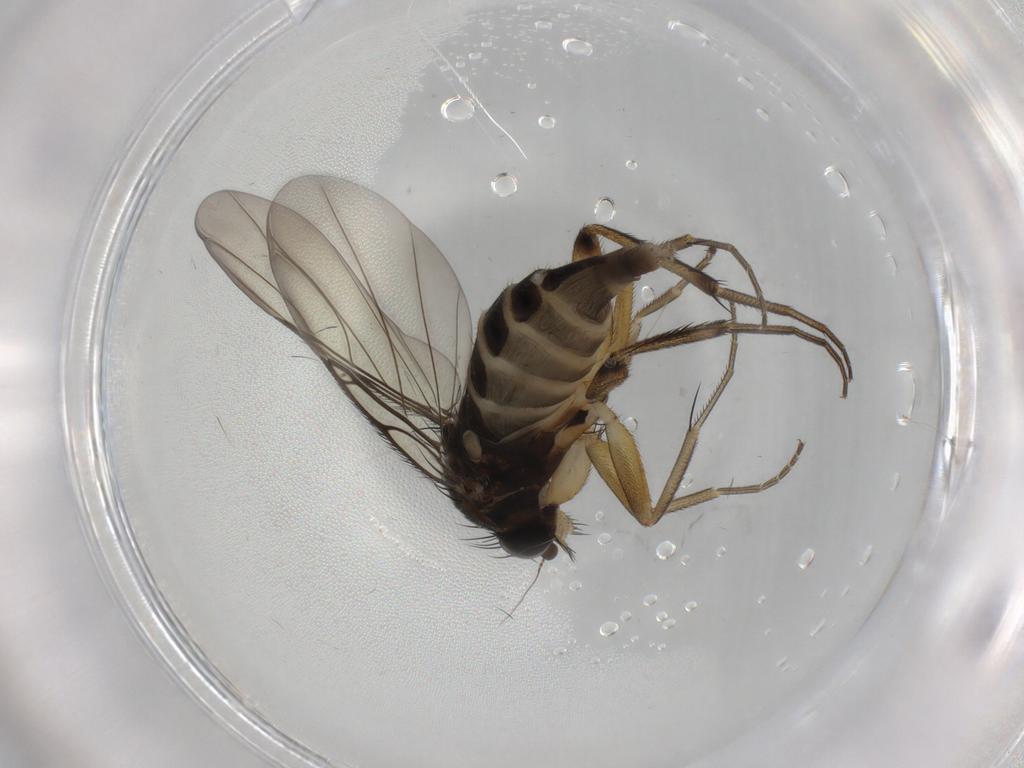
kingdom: Animalia
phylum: Arthropoda
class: Insecta
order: Diptera
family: Phoridae
